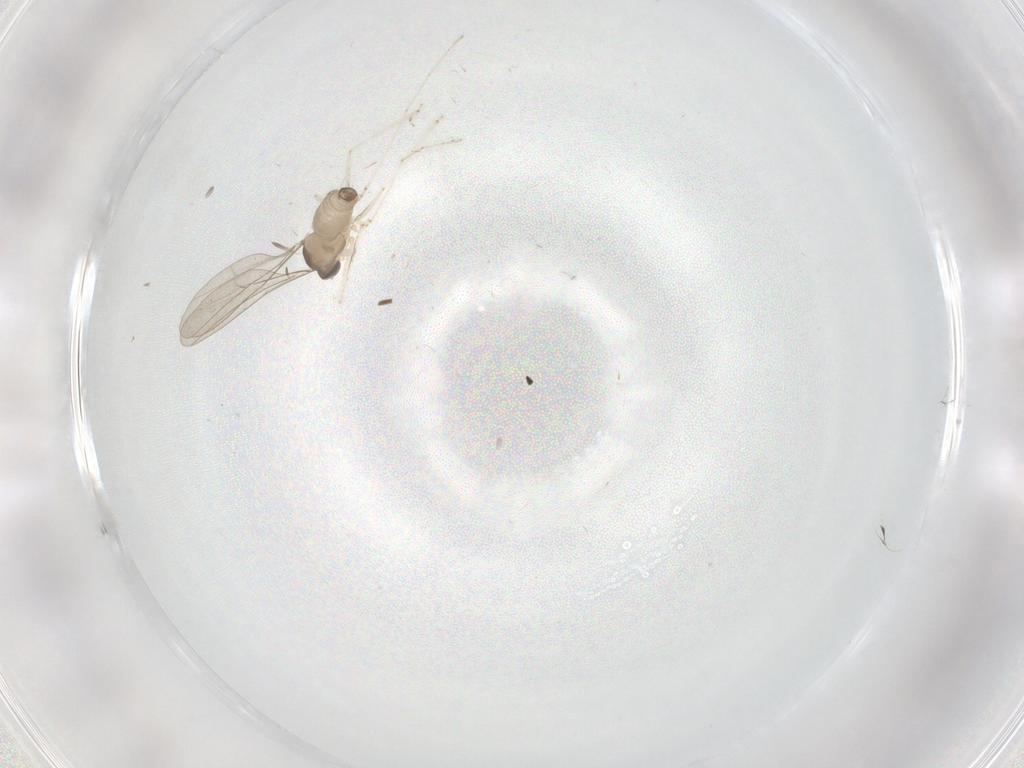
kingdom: Animalia
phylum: Arthropoda
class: Insecta
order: Diptera
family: Cecidomyiidae
